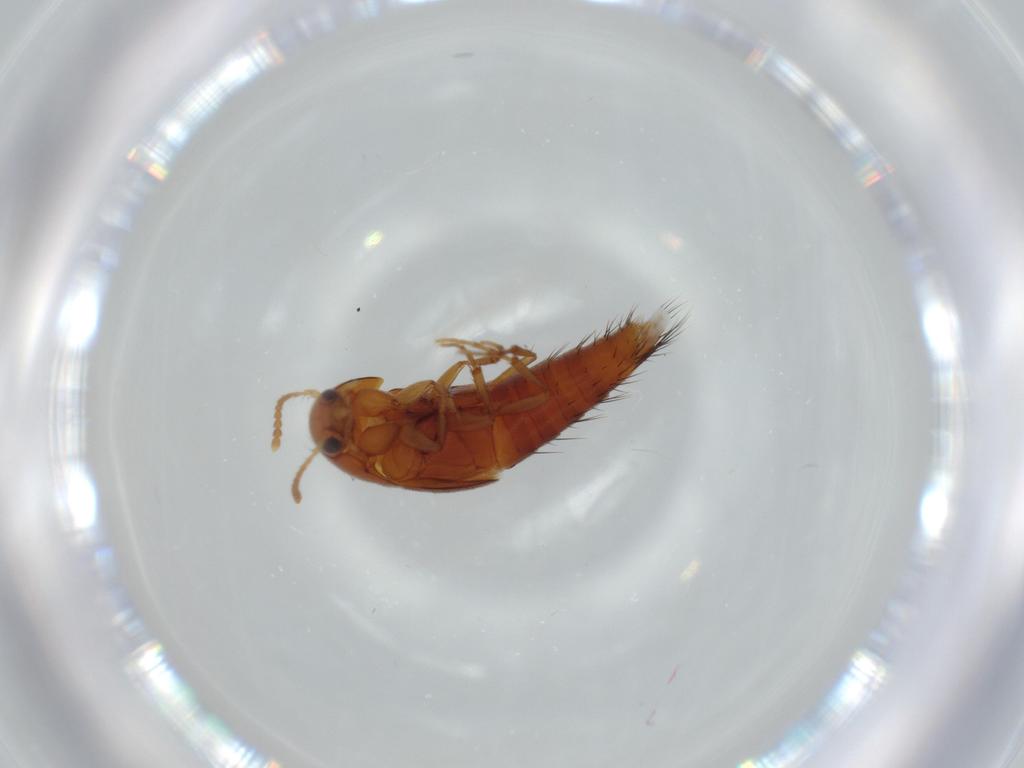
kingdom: Animalia
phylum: Arthropoda
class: Insecta
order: Coleoptera
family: Staphylinidae
